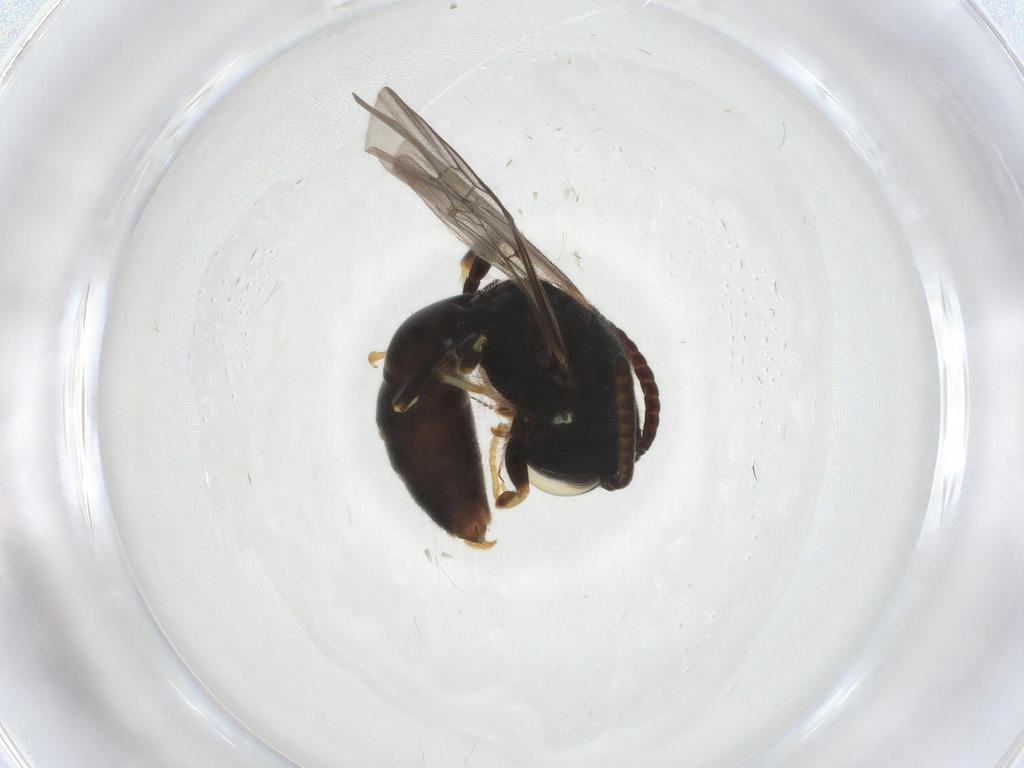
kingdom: Animalia
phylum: Arthropoda
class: Insecta
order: Hymenoptera
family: Colletidae
